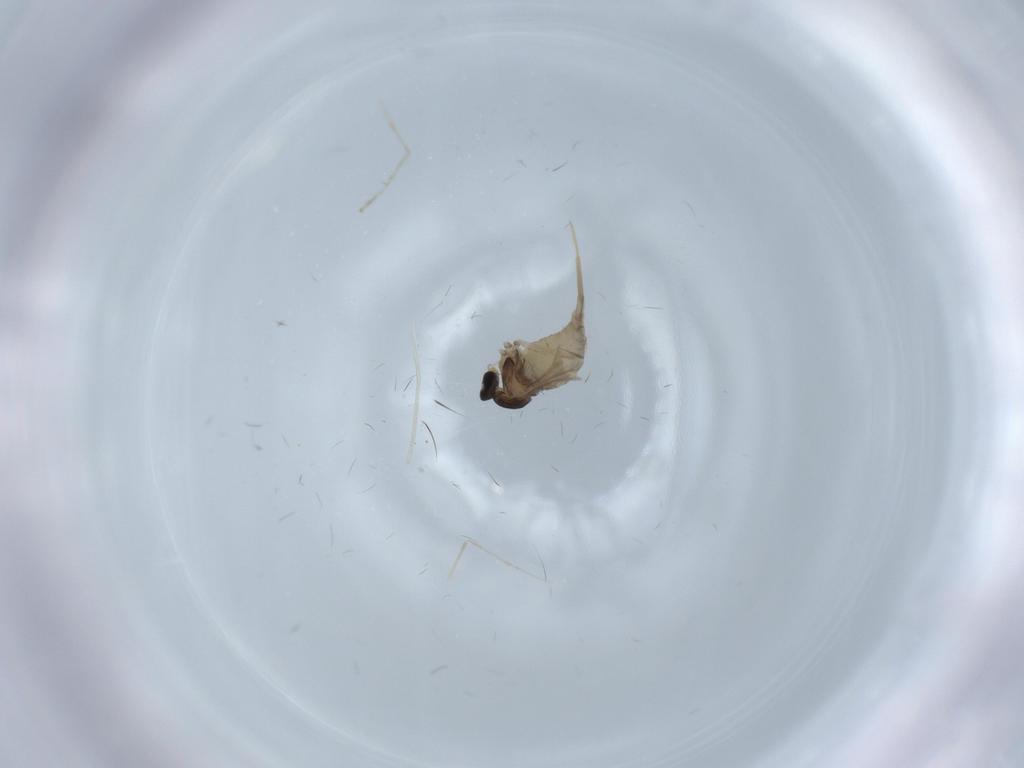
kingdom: Animalia
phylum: Arthropoda
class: Insecta
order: Diptera
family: Cecidomyiidae
